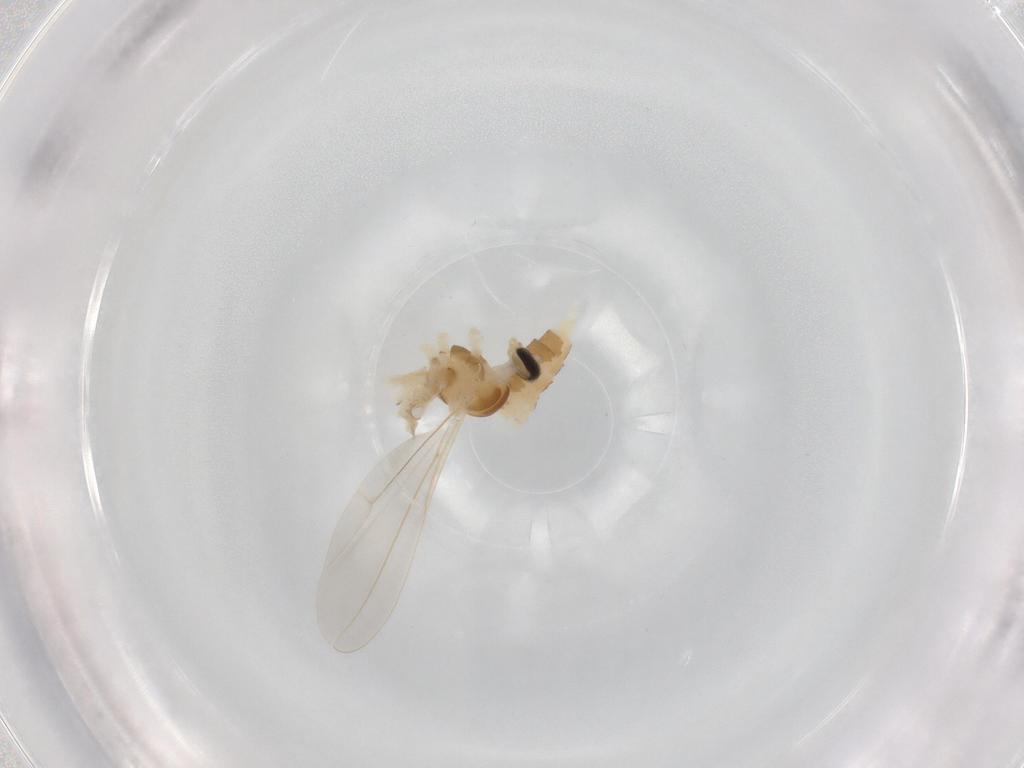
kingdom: Animalia
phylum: Arthropoda
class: Insecta
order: Diptera
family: Cecidomyiidae
